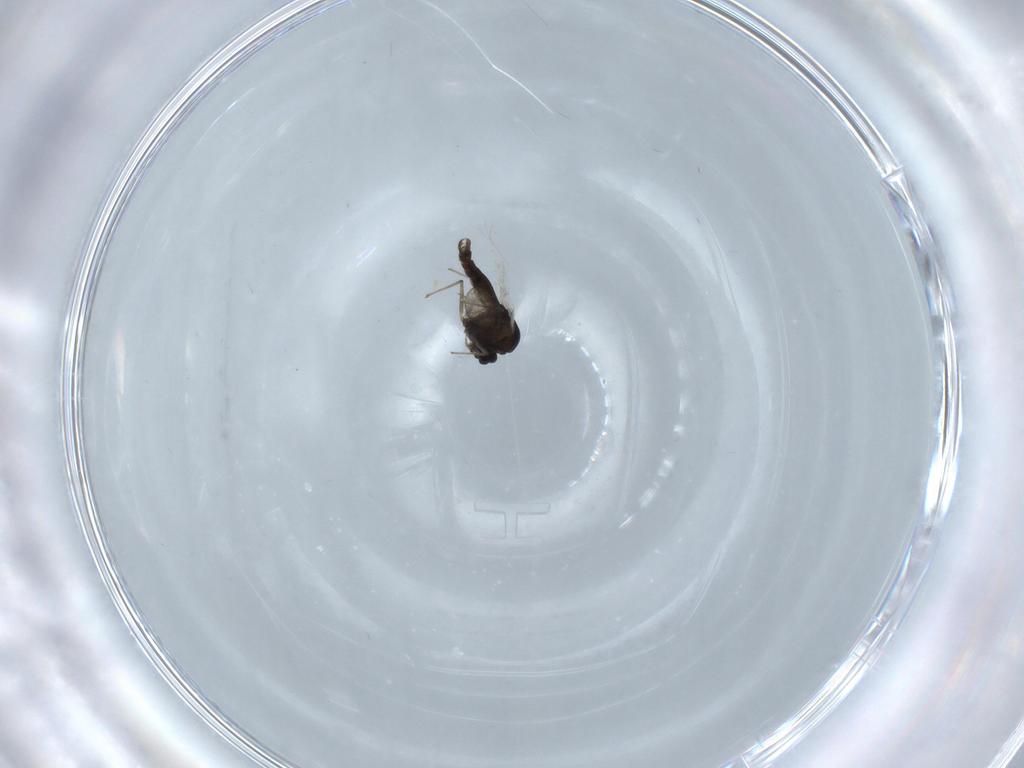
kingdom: Animalia
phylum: Arthropoda
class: Insecta
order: Diptera
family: Chironomidae
